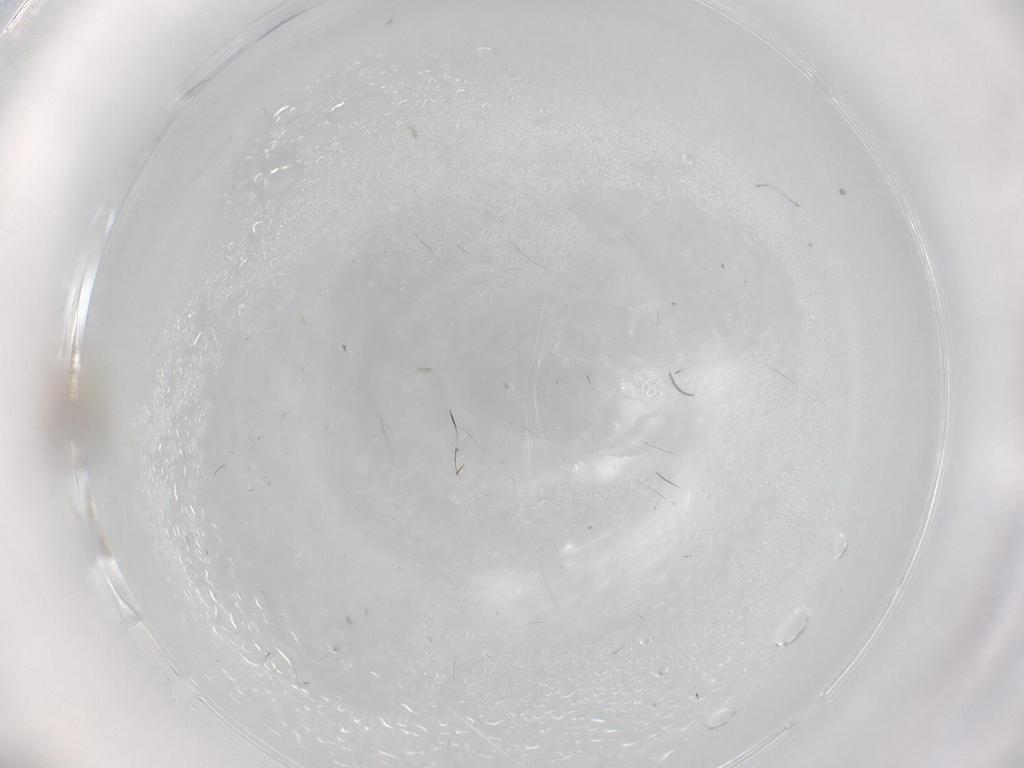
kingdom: Animalia
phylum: Arthropoda
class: Insecta
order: Diptera
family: Cecidomyiidae
